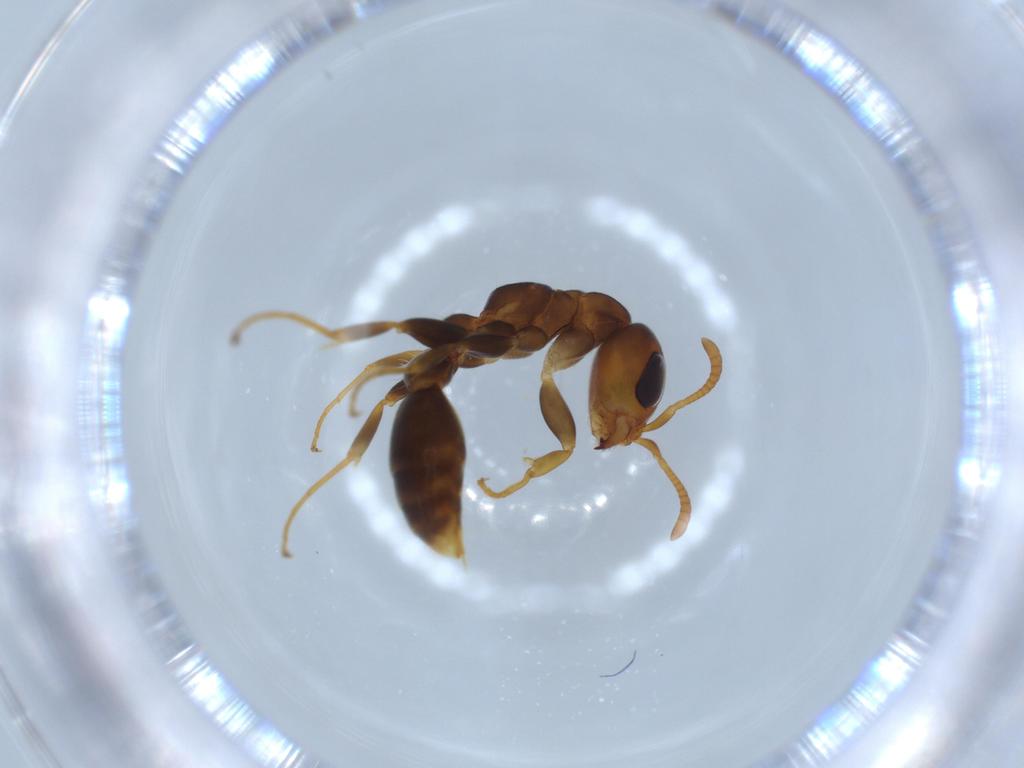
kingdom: Animalia
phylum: Arthropoda
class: Insecta
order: Hymenoptera
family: Formicidae
